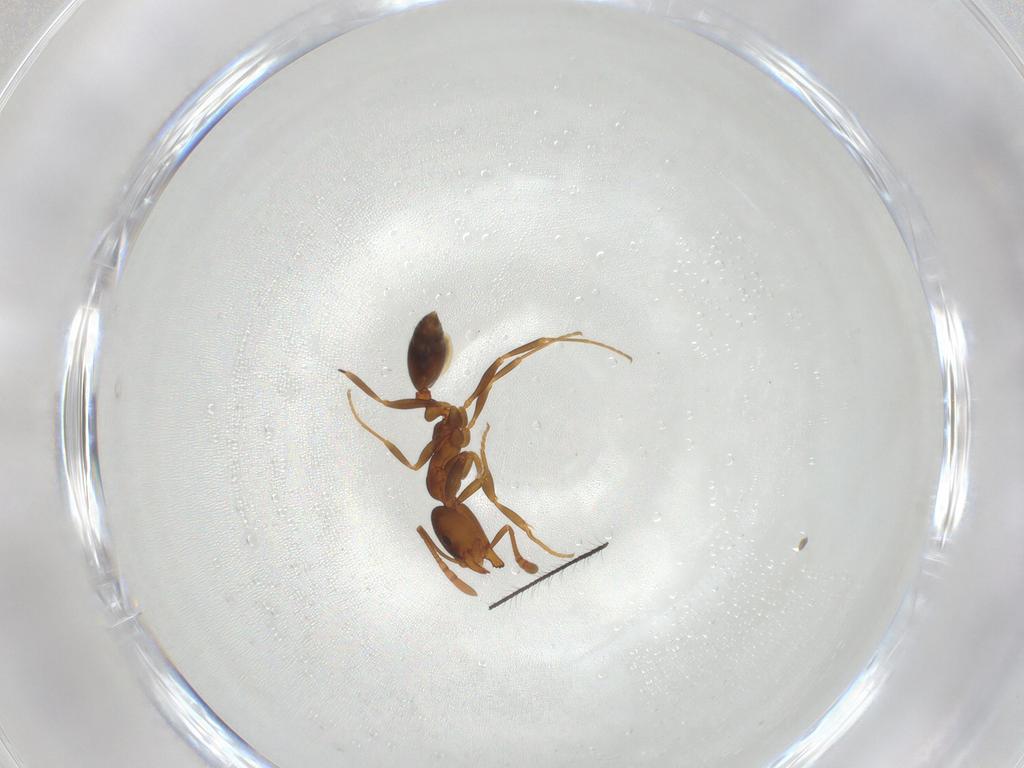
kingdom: Animalia
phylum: Arthropoda
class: Insecta
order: Hymenoptera
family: Formicidae
